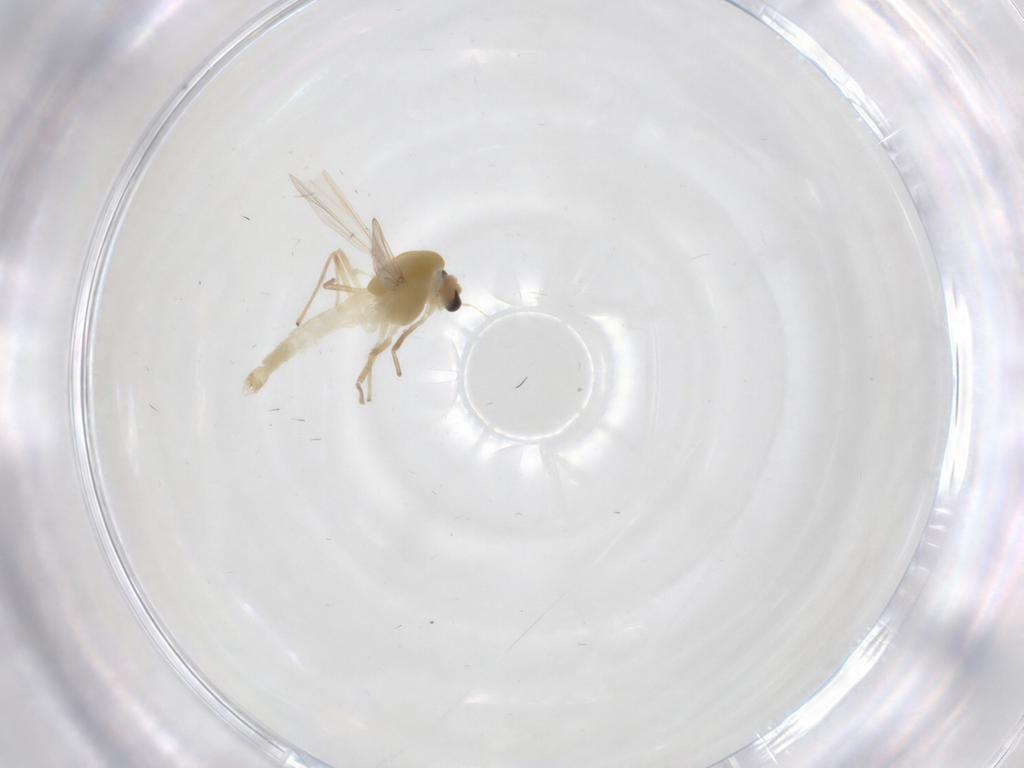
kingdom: Animalia
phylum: Arthropoda
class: Insecta
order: Diptera
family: Chironomidae
